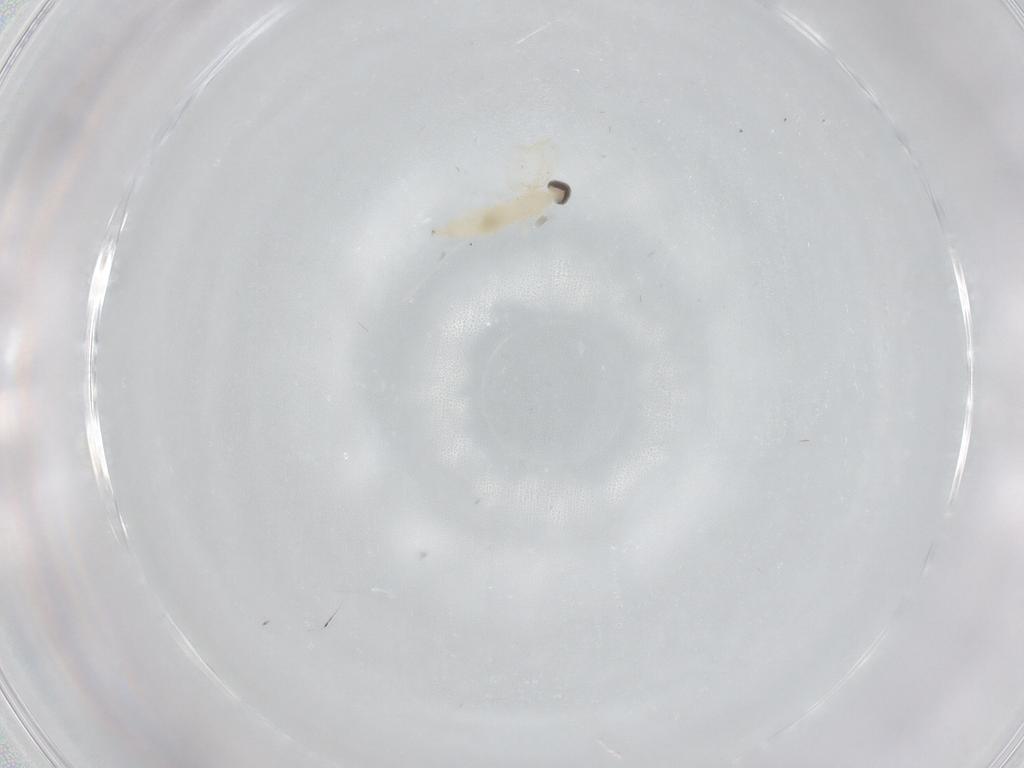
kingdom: Animalia
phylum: Arthropoda
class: Insecta
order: Diptera
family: Cecidomyiidae
